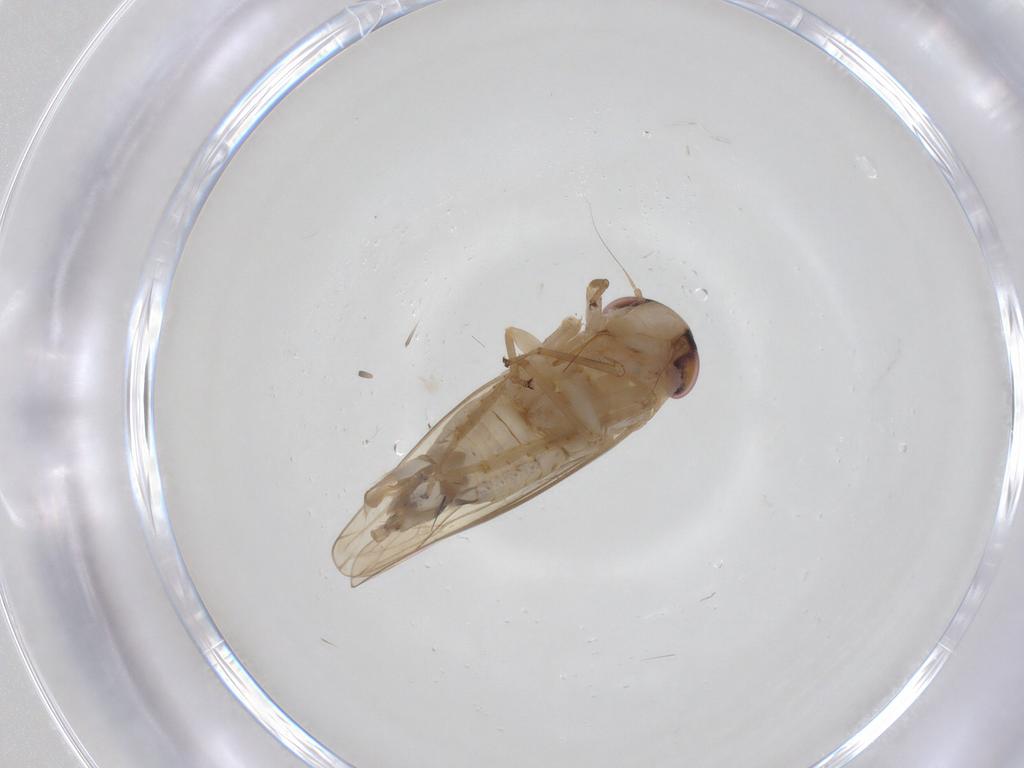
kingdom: Animalia
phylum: Arthropoda
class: Insecta
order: Hemiptera
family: Cicadellidae
